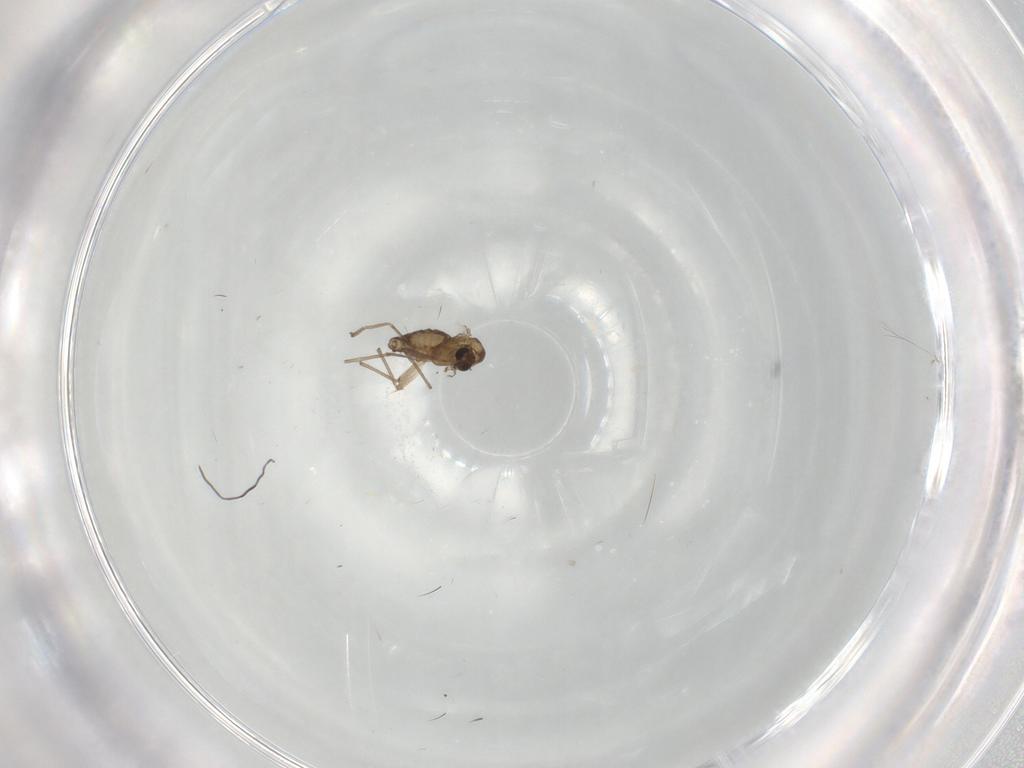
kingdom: Animalia
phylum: Arthropoda
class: Insecta
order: Diptera
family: Chironomidae
